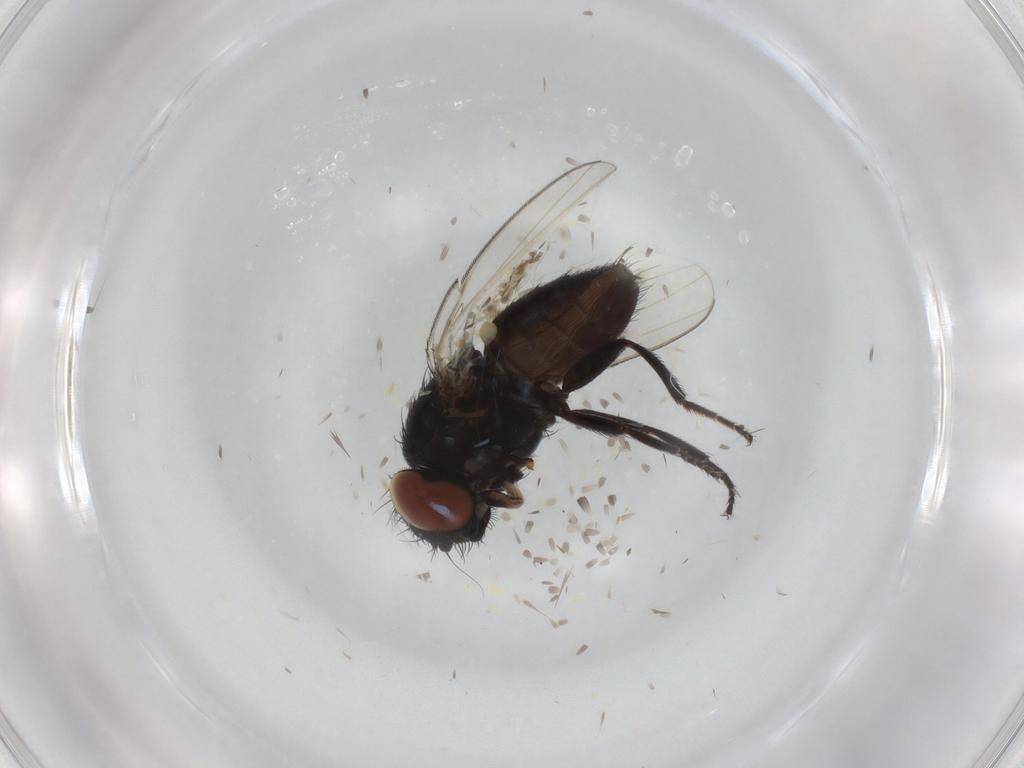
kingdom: Animalia
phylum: Arthropoda
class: Insecta
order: Diptera
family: Milichiidae
